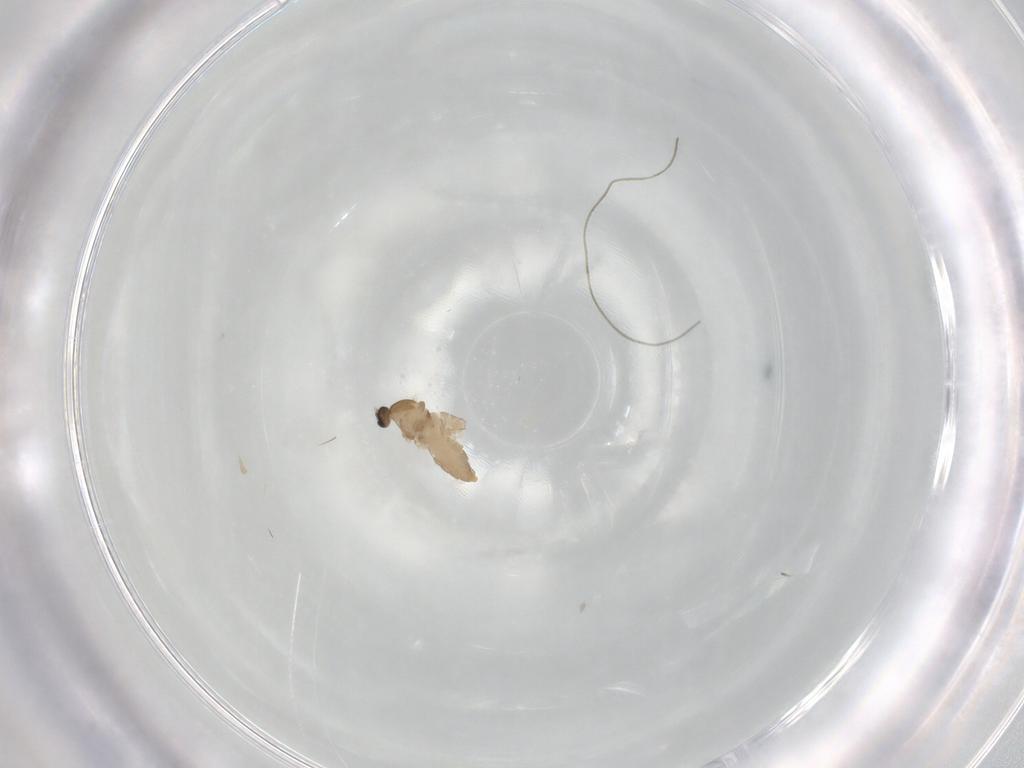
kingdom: Animalia
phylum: Arthropoda
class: Insecta
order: Diptera
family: Cecidomyiidae
